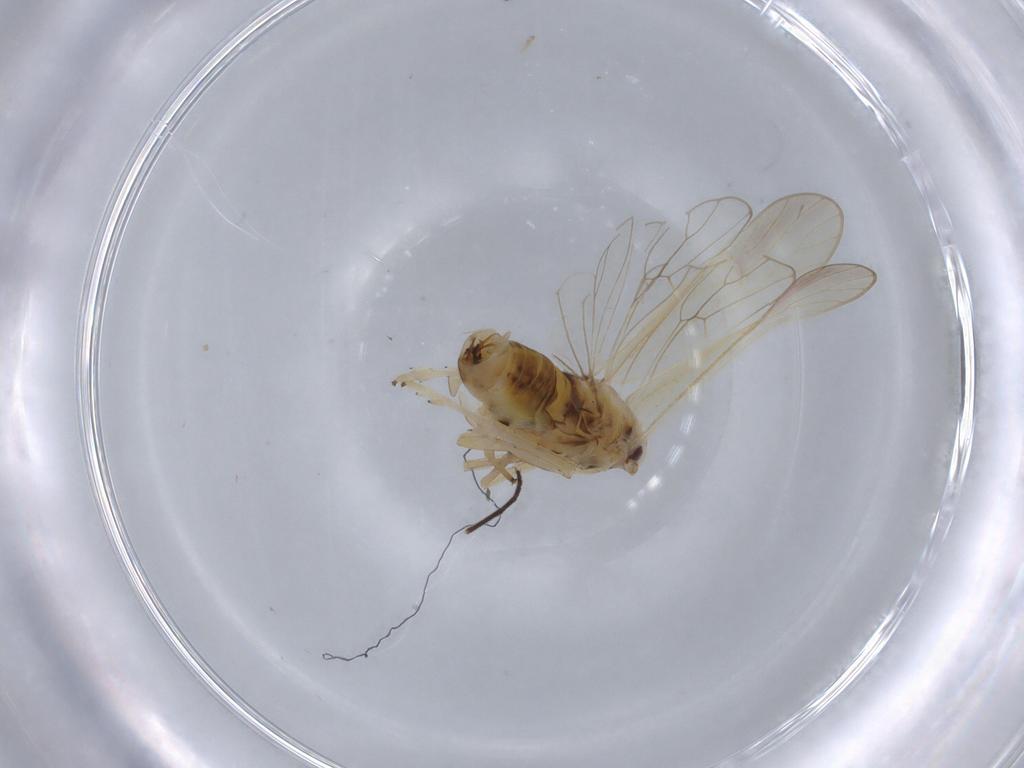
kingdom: Animalia
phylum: Arthropoda
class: Insecta
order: Hemiptera
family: Delphacidae
